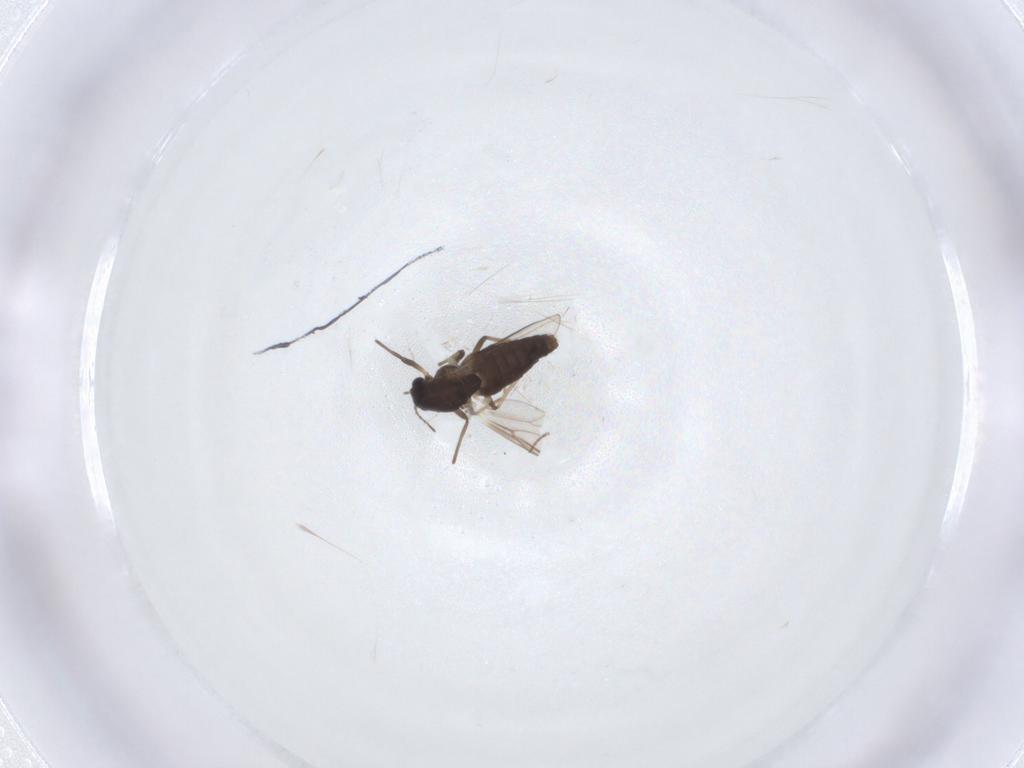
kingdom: Animalia
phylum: Arthropoda
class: Insecta
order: Diptera
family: Chironomidae
